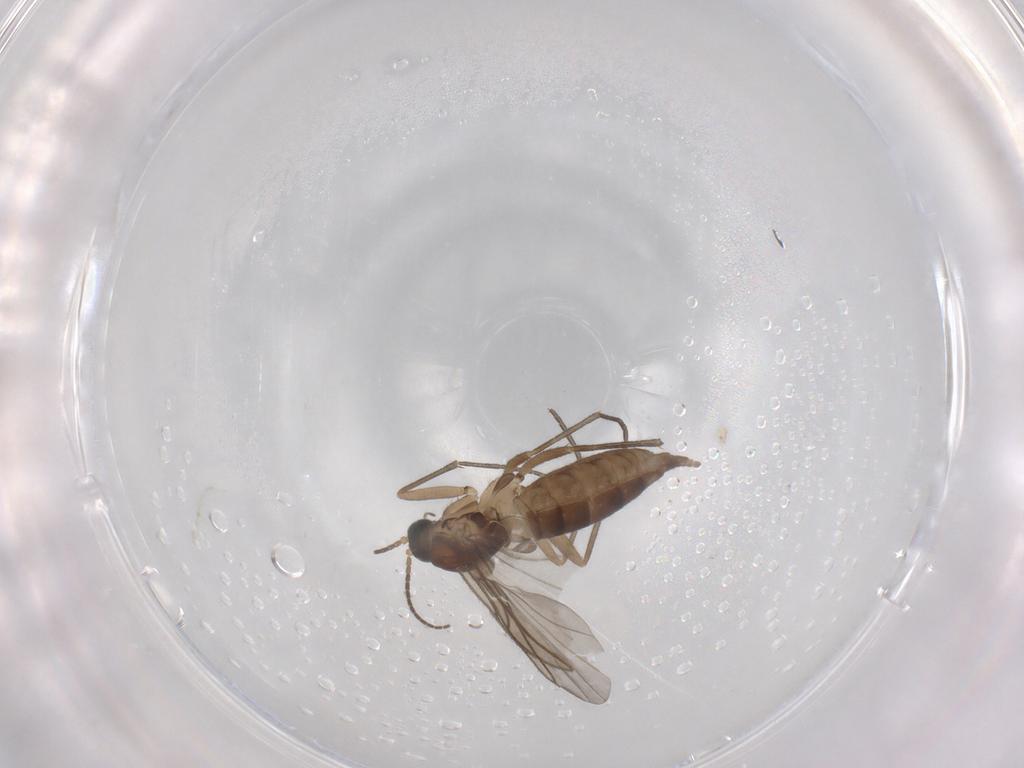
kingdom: Animalia
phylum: Arthropoda
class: Insecta
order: Diptera
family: Sciaridae
